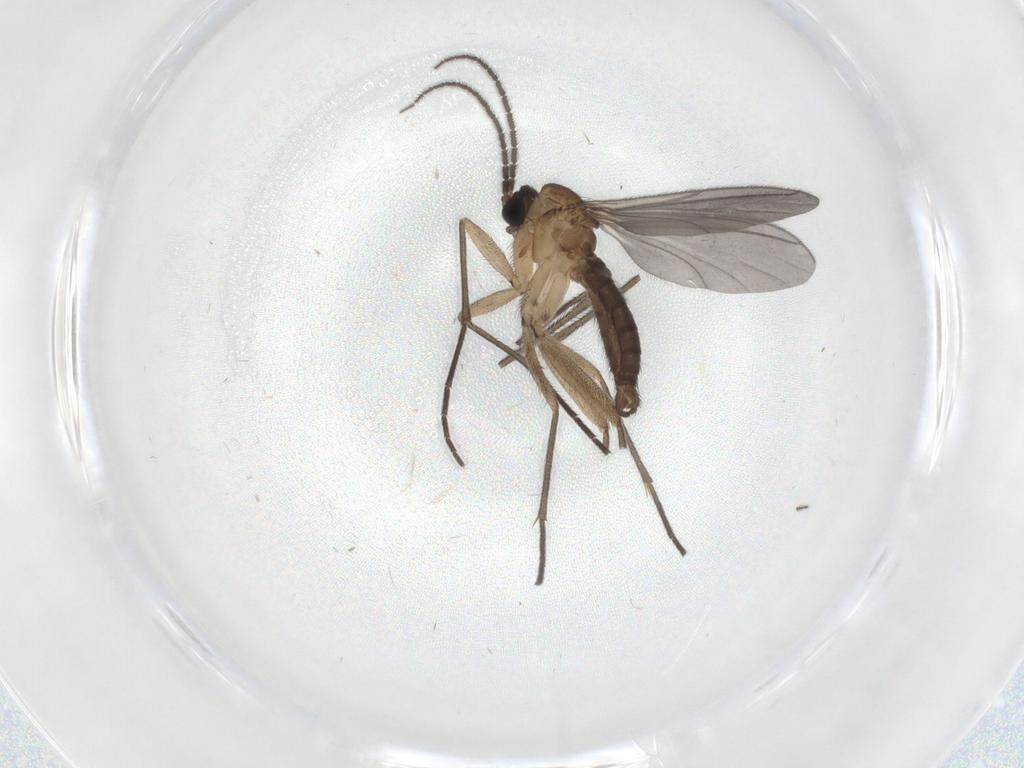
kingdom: Animalia
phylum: Arthropoda
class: Insecta
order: Diptera
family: Sciaridae
